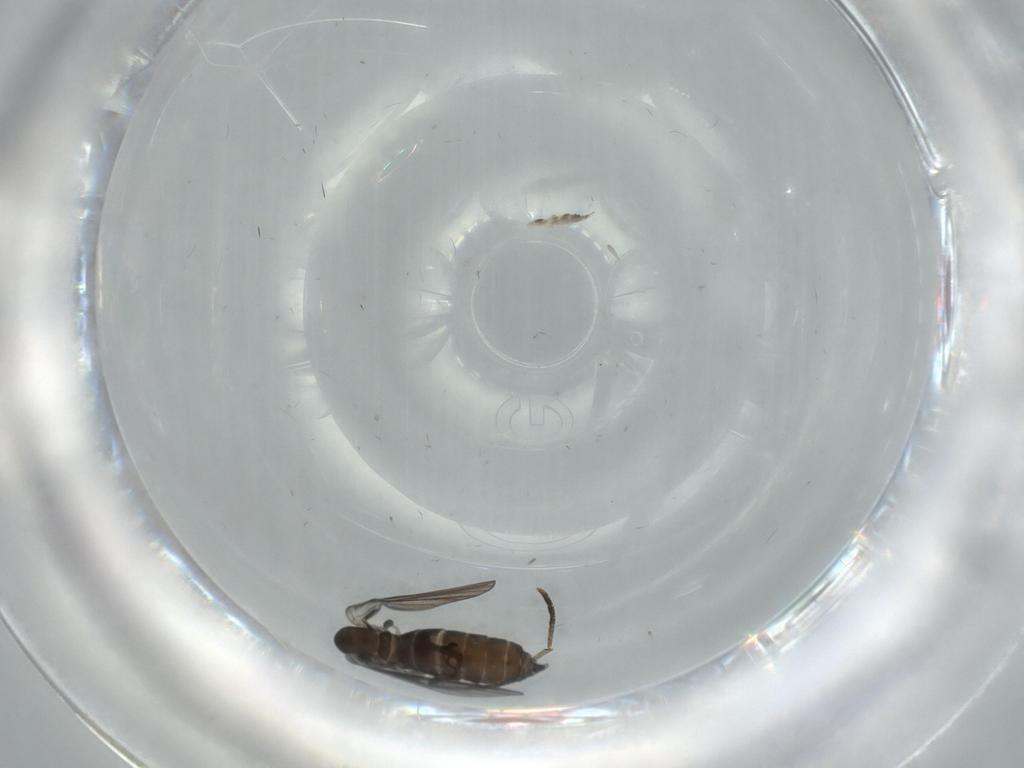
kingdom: Animalia
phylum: Arthropoda
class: Insecta
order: Diptera
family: Psychodidae
